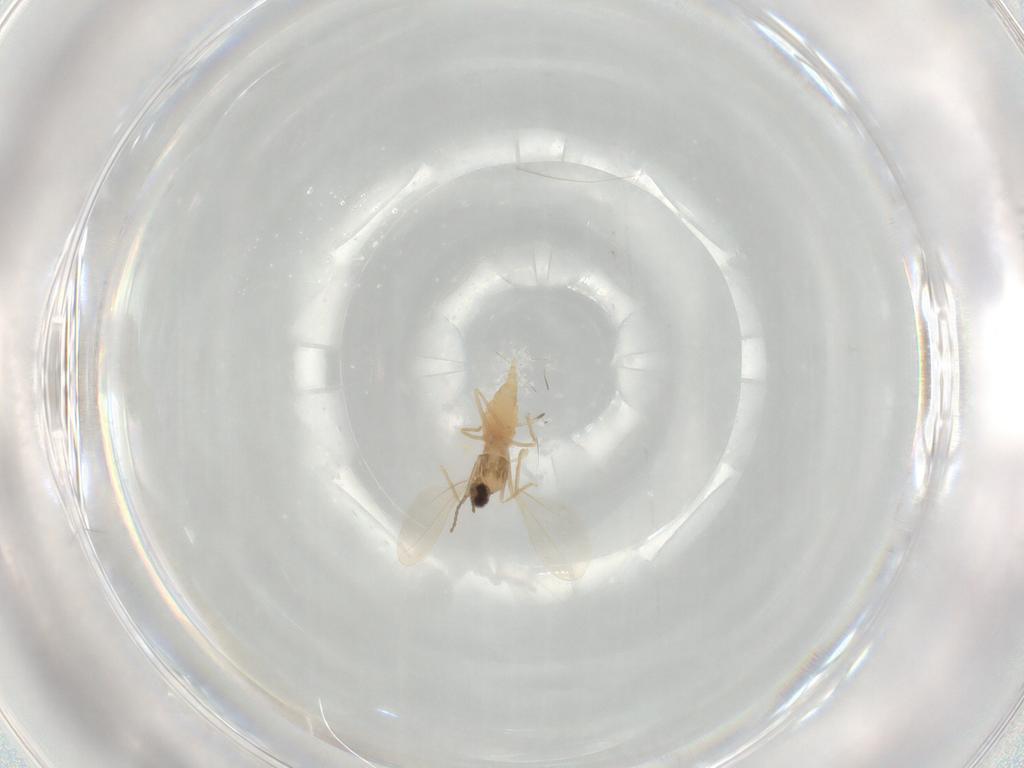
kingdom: Animalia
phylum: Arthropoda
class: Insecta
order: Diptera
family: Cecidomyiidae
